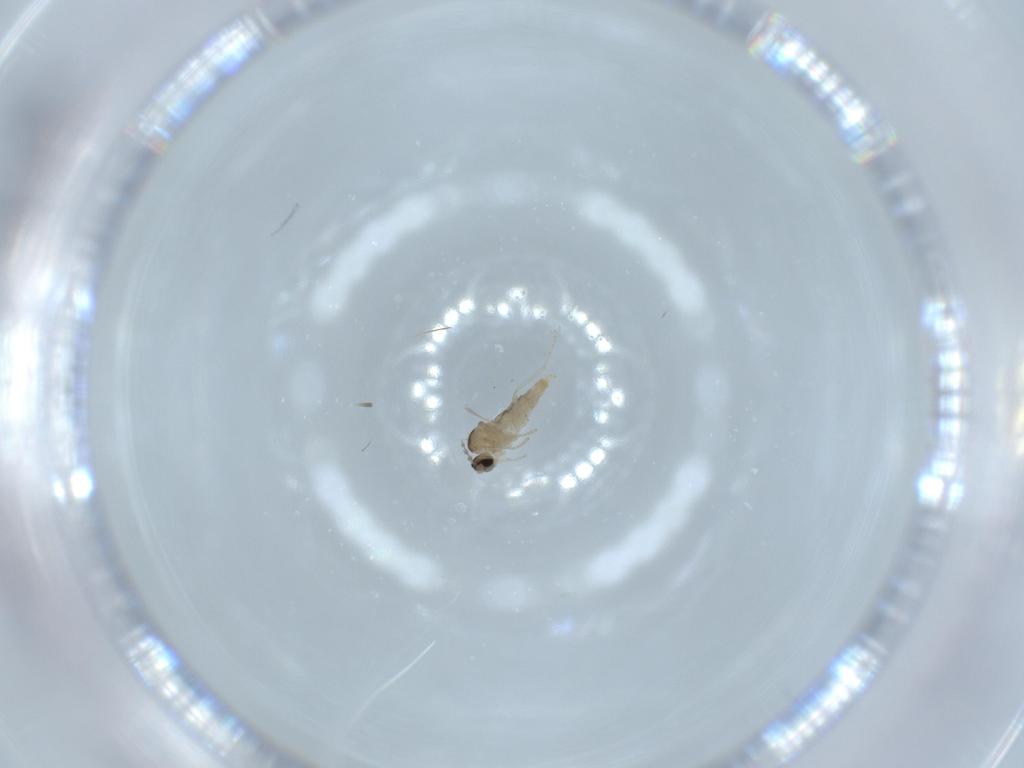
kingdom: Animalia
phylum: Arthropoda
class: Insecta
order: Diptera
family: Cecidomyiidae
